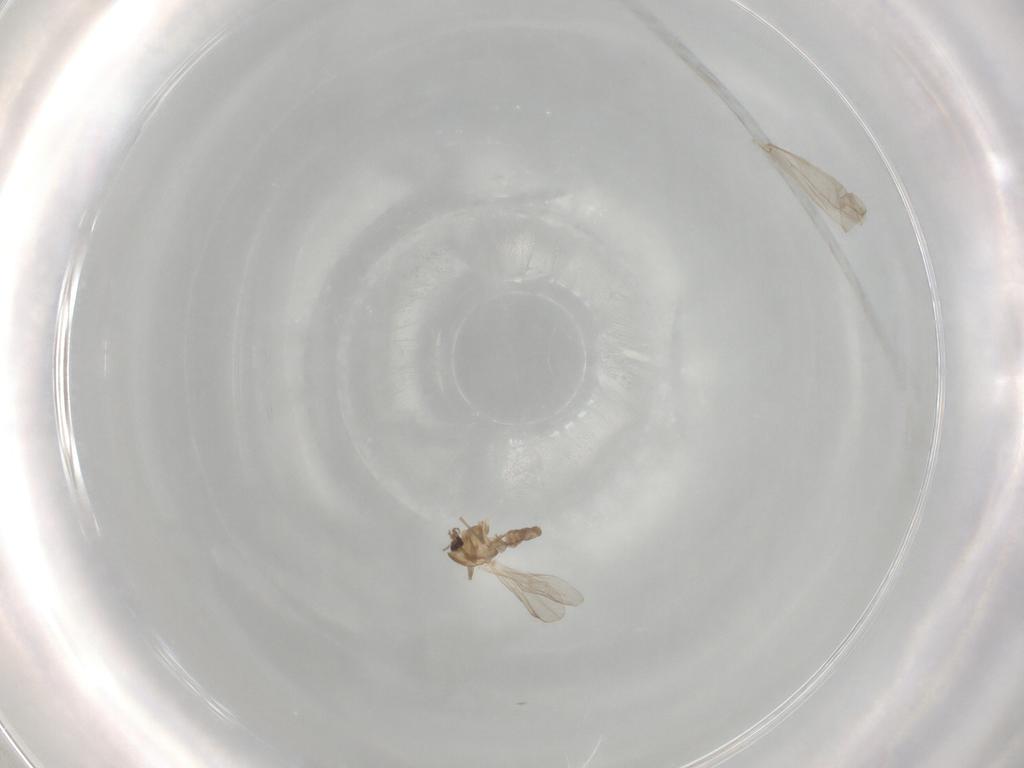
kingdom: Animalia
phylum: Arthropoda
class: Insecta
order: Diptera
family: Chironomidae
